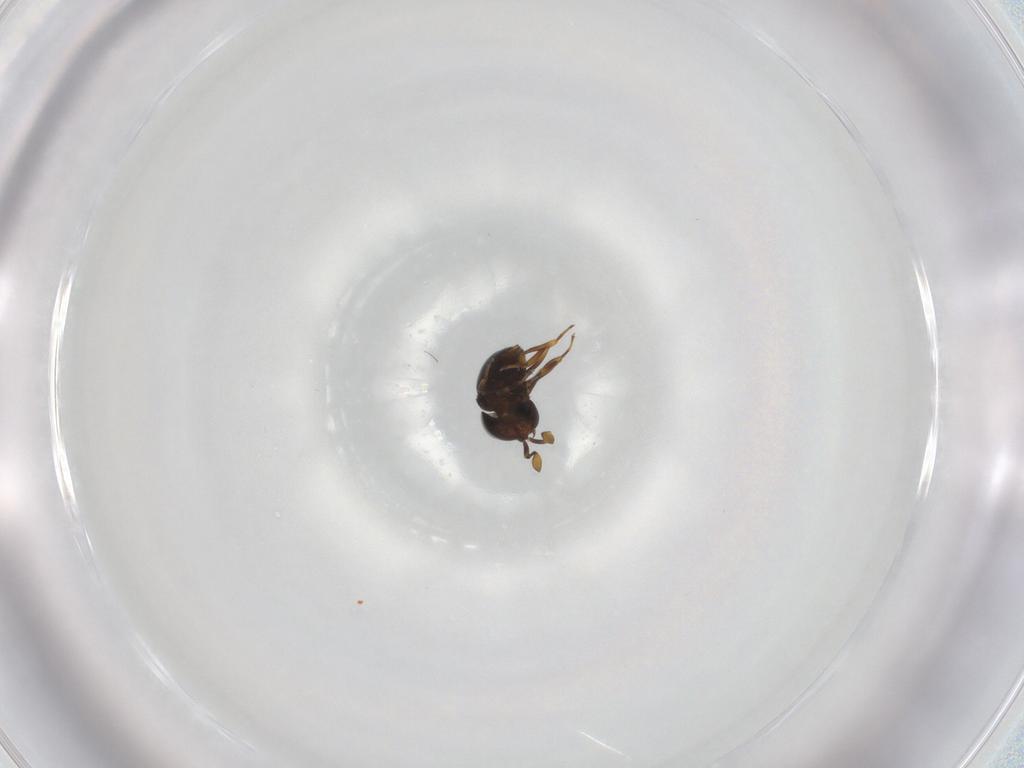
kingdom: Animalia
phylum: Arthropoda
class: Insecta
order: Hymenoptera
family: Scelionidae
